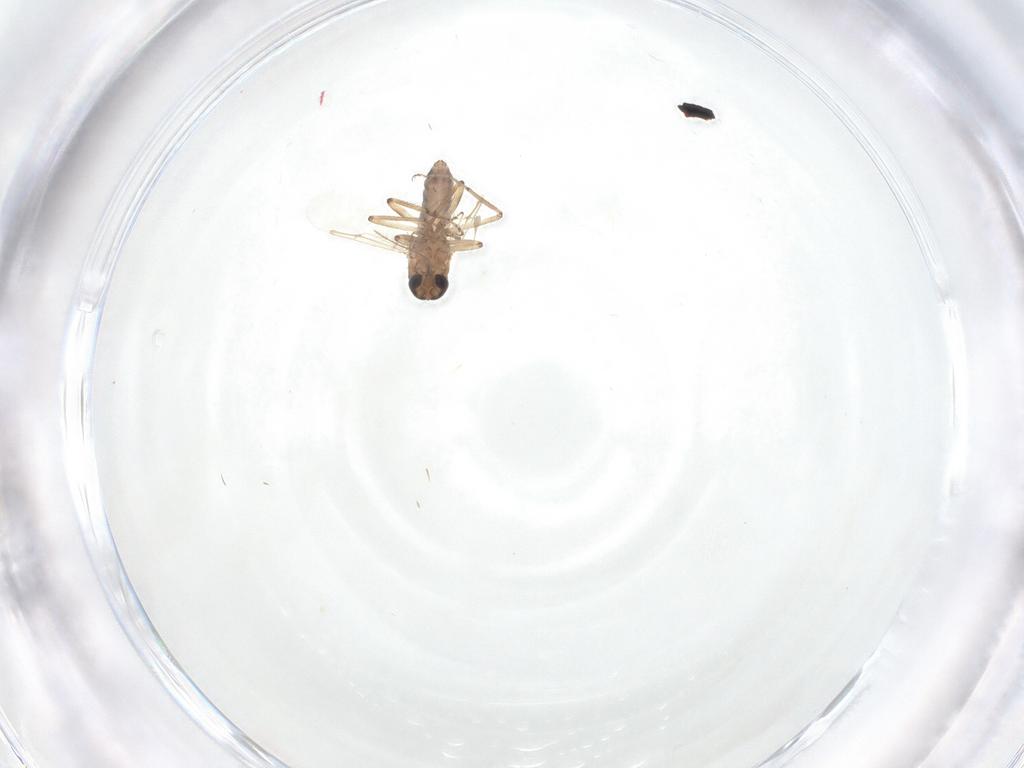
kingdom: Animalia
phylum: Arthropoda
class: Insecta
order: Diptera
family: Ceratopogonidae
